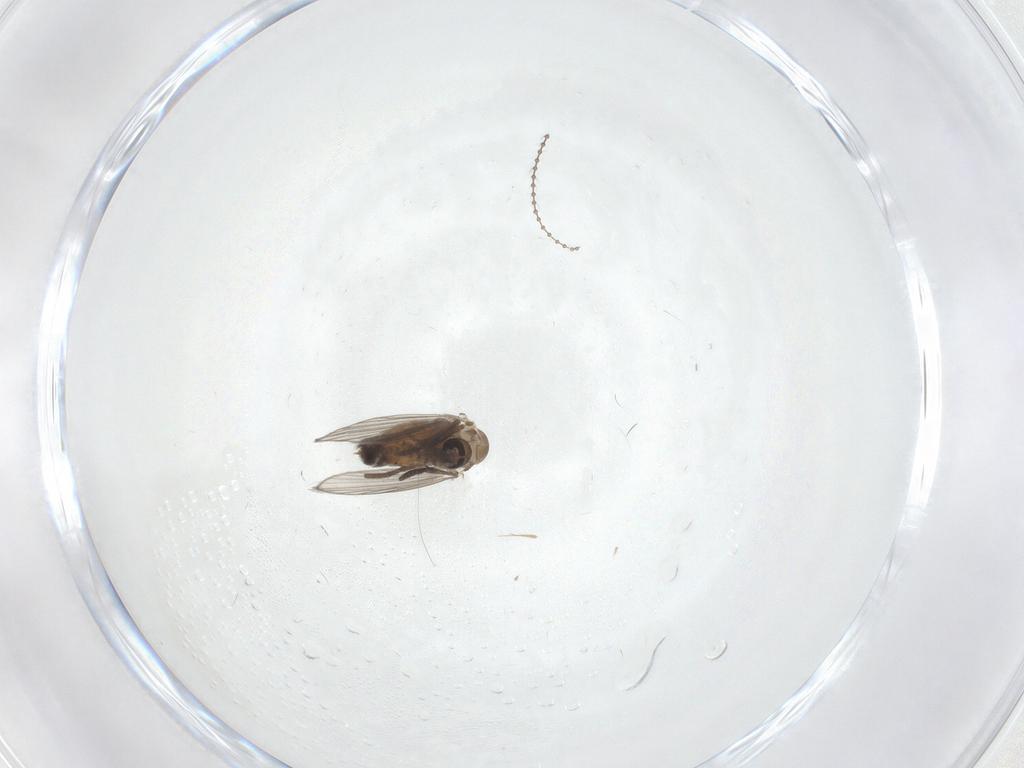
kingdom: Animalia
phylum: Arthropoda
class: Insecta
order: Diptera
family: Psychodidae
